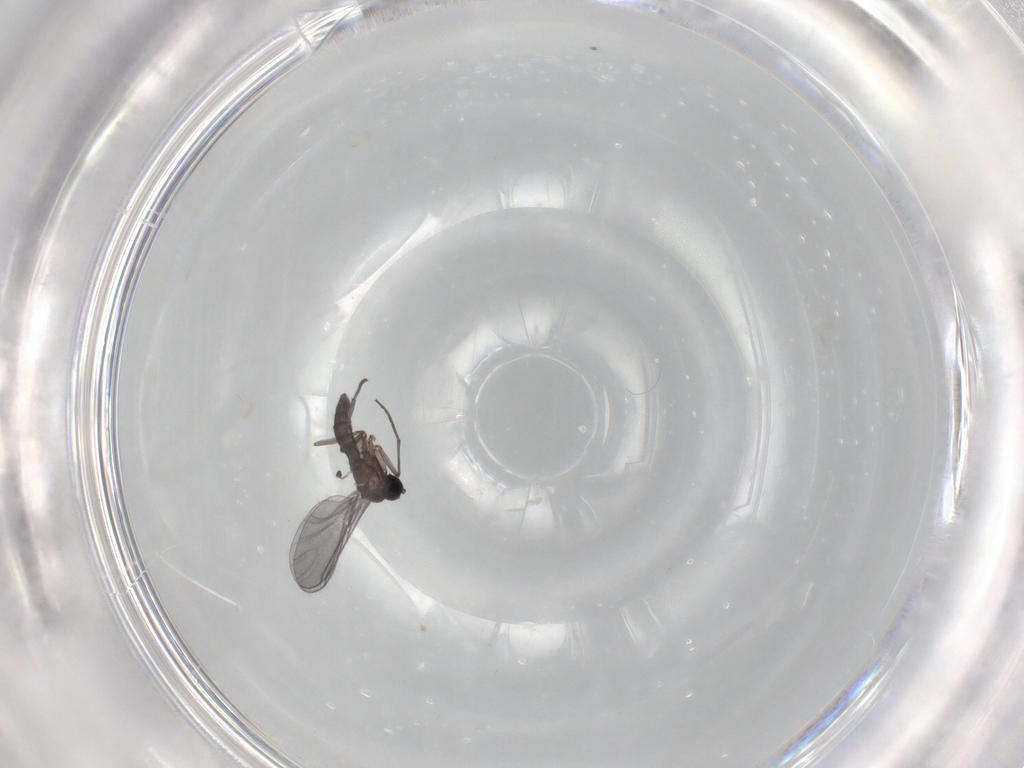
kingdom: Animalia
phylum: Arthropoda
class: Insecta
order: Diptera
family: Sciaridae
